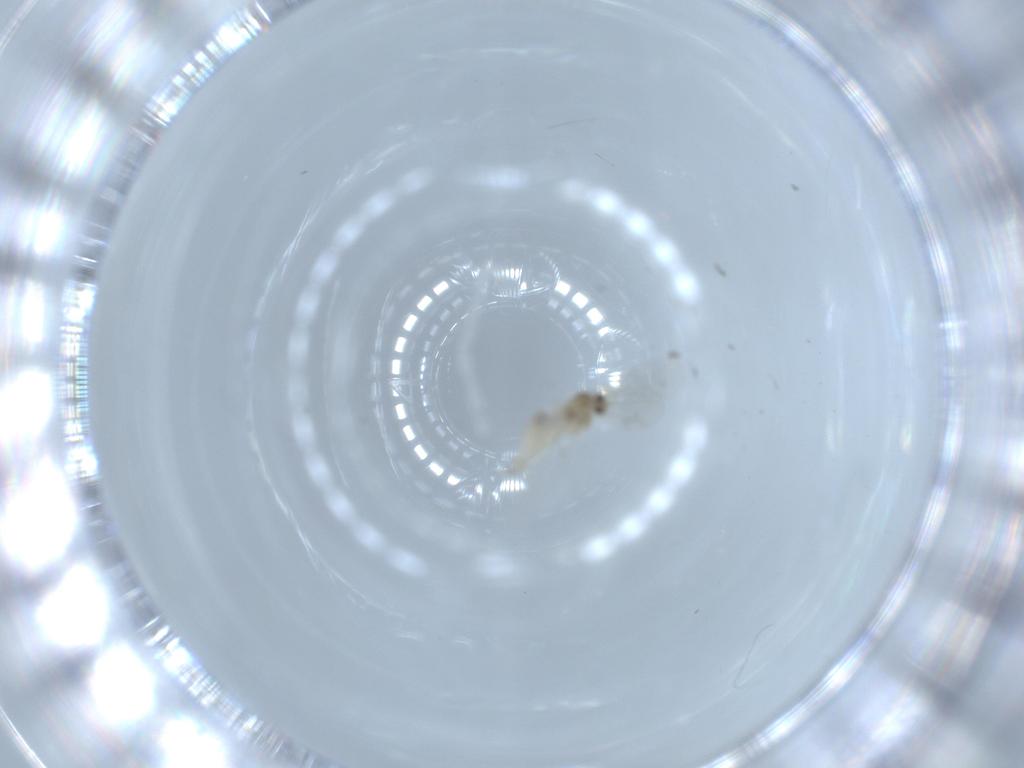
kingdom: Animalia
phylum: Arthropoda
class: Insecta
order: Diptera
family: Cecidomyiidae
